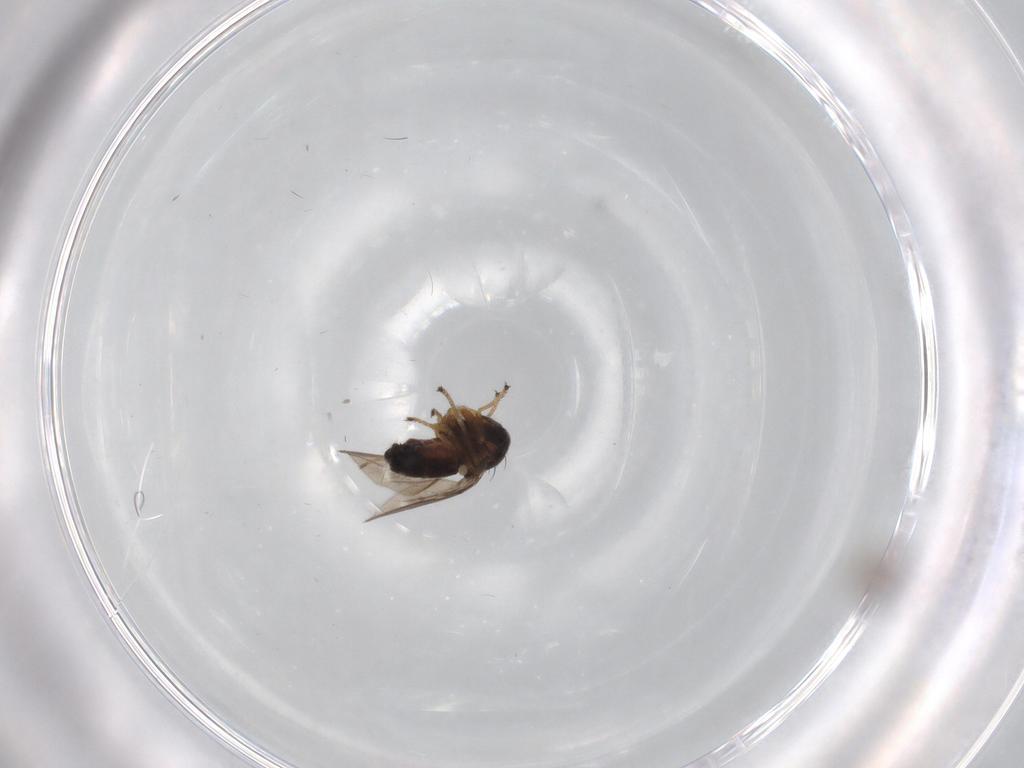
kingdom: Animalia
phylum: Arthropoda
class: Insecta
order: Diptera
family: Ephydridae
